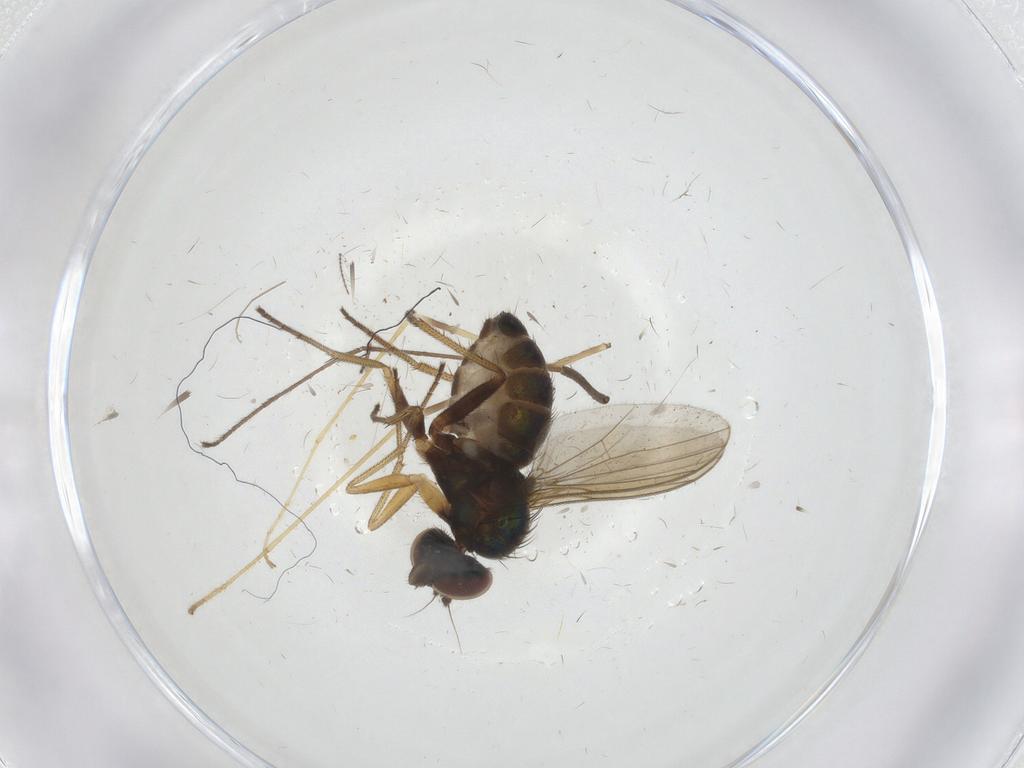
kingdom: Animalia
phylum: Arthropoda
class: Insecta
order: Diptera
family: Dolichopodidae
